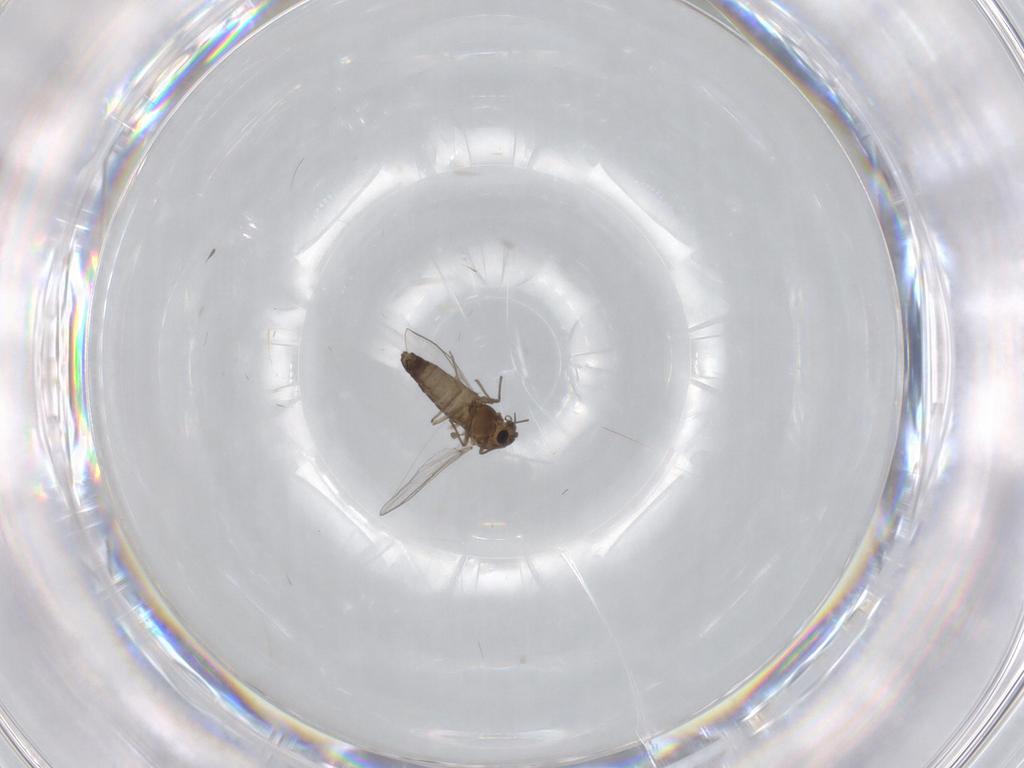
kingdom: Animalia
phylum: Arthropoda
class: Insecta
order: Diptera
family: Chironomidae
